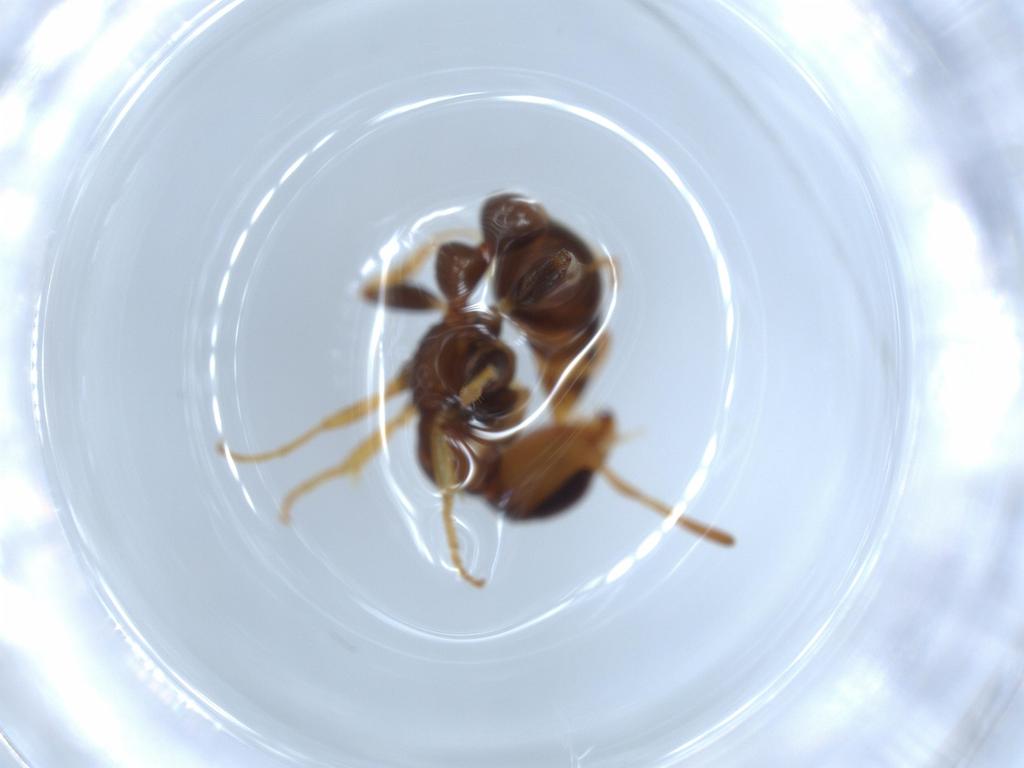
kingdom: Animalia
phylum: Arthropoda
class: Insecta
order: Hymenoptera
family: Formicidae
